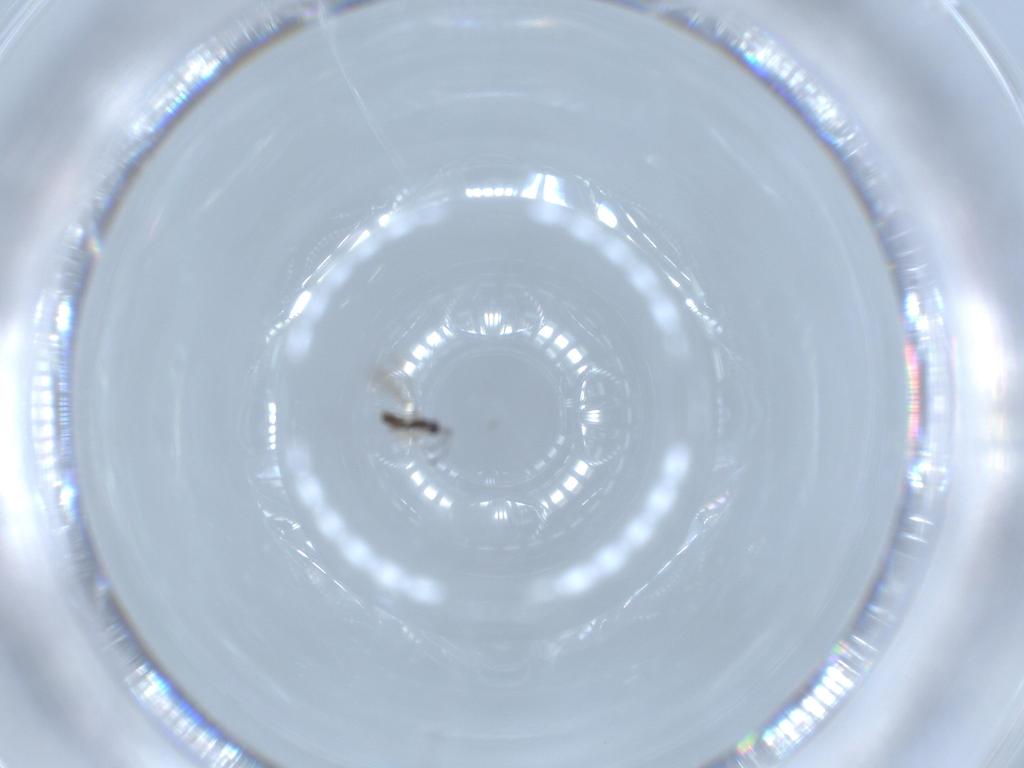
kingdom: Animalia
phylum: Arthropoda
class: Insecta
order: Hymenoptera
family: Mymaridae
